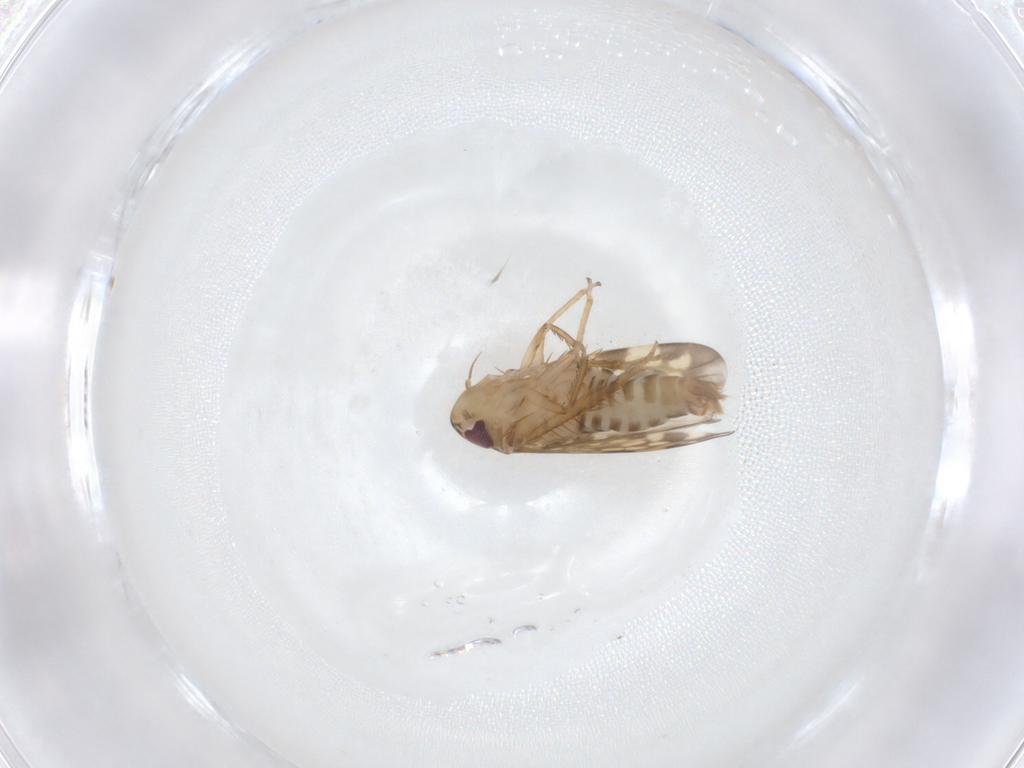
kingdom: Animalia
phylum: Arthropoda
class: Insecta
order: Hemiptera
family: Cicadellidae
